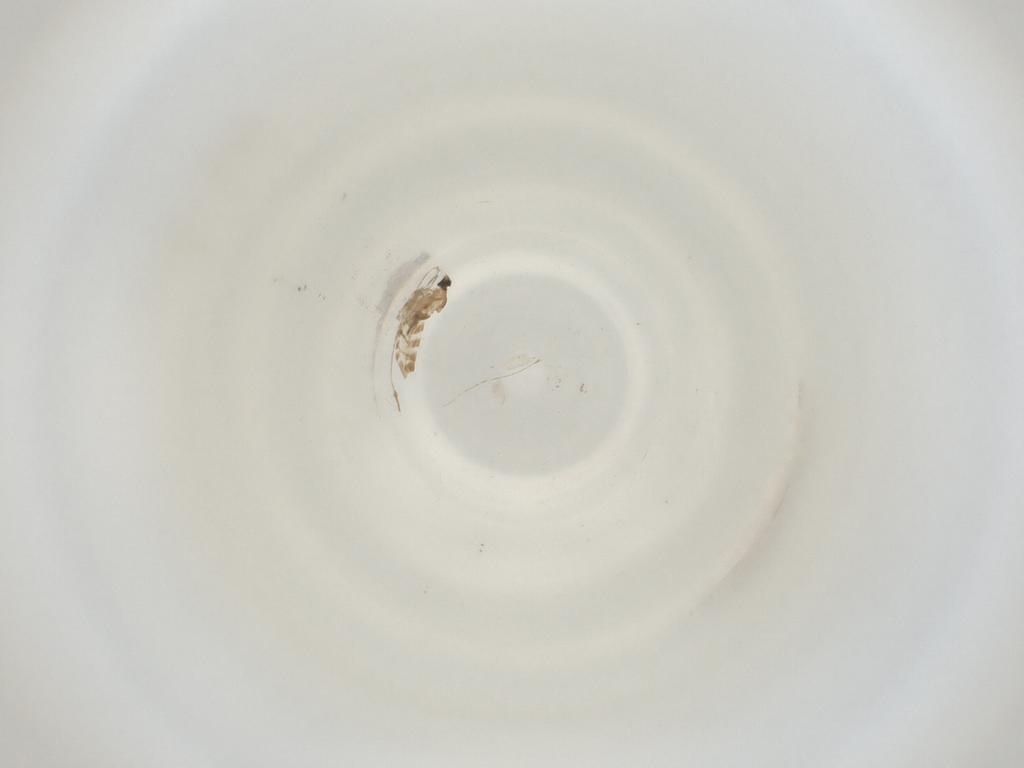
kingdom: Animalia
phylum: Arthropoda
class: Insecta
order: Diptera
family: Cecidomyiidae
